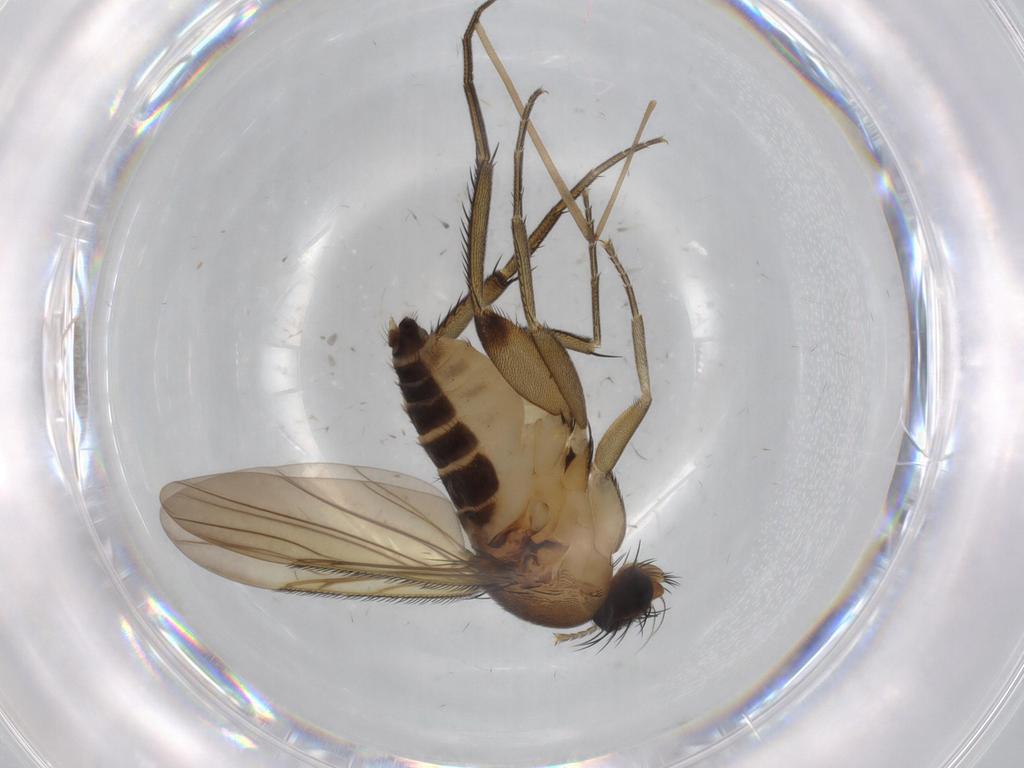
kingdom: Animalia
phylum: Arthropoda
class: Insecta
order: Diptera
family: Limoniidae
